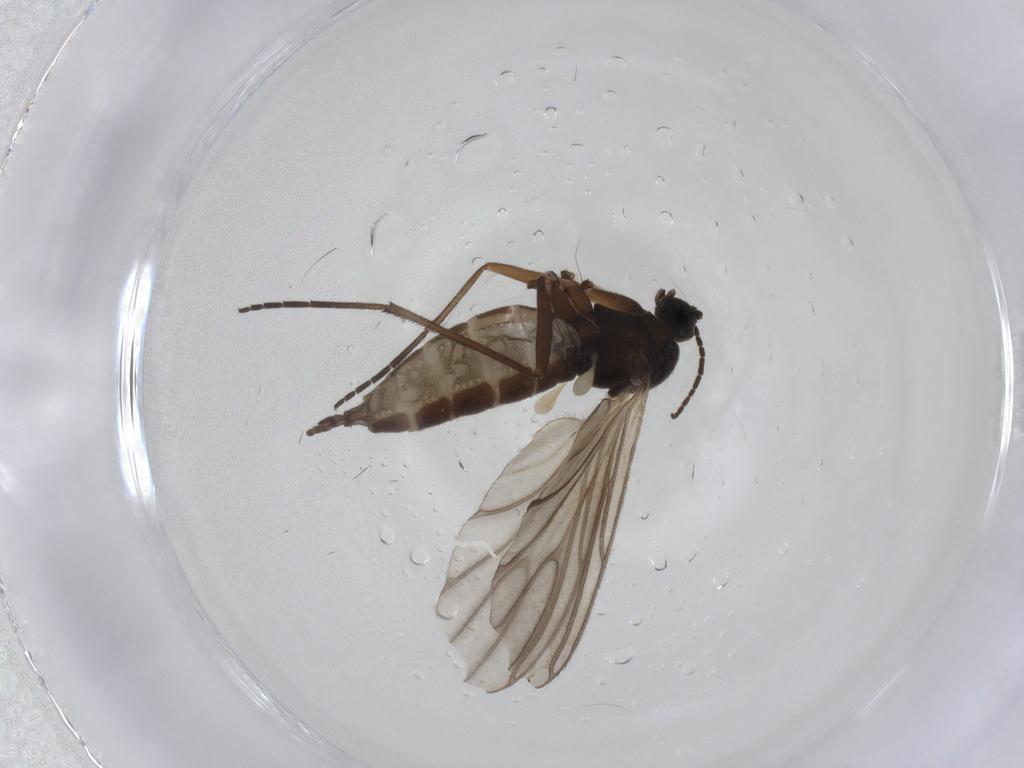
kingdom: Animalia
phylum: Arthropoda
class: Insecta
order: Diptera
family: Sciaridae
